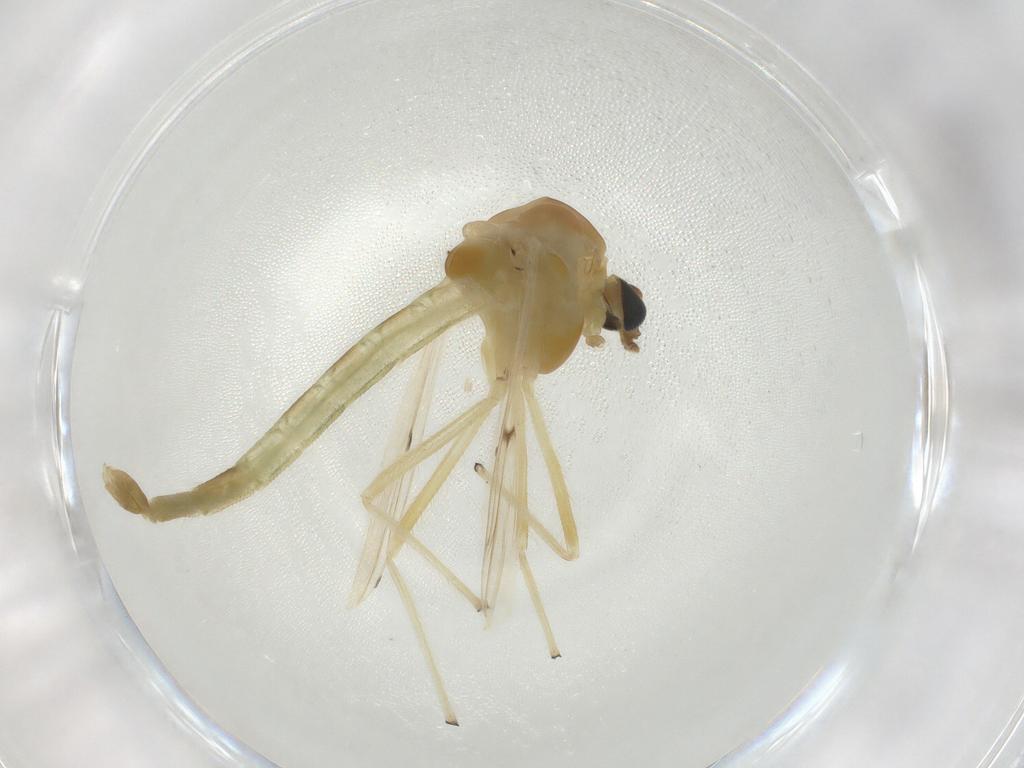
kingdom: Animalia
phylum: Arthropoda
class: Insecta
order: Diptera
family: Chironomidae
